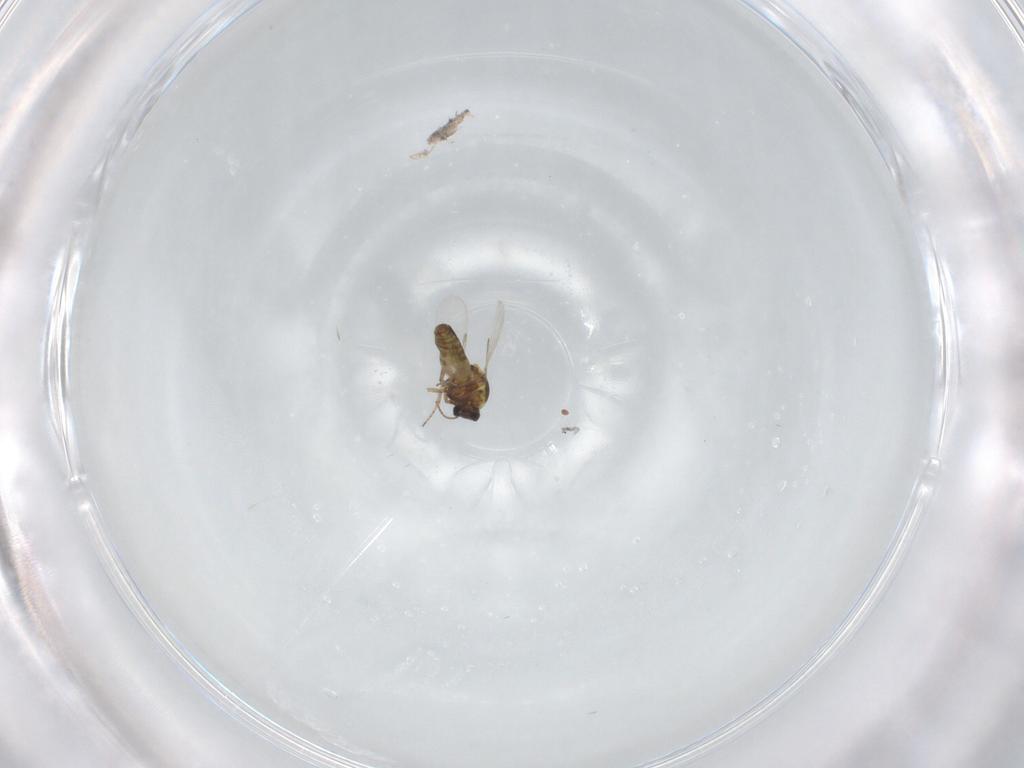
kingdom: Animalia
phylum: Arthropoda
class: Insecta
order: Diptera
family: Ceratopogonidae
